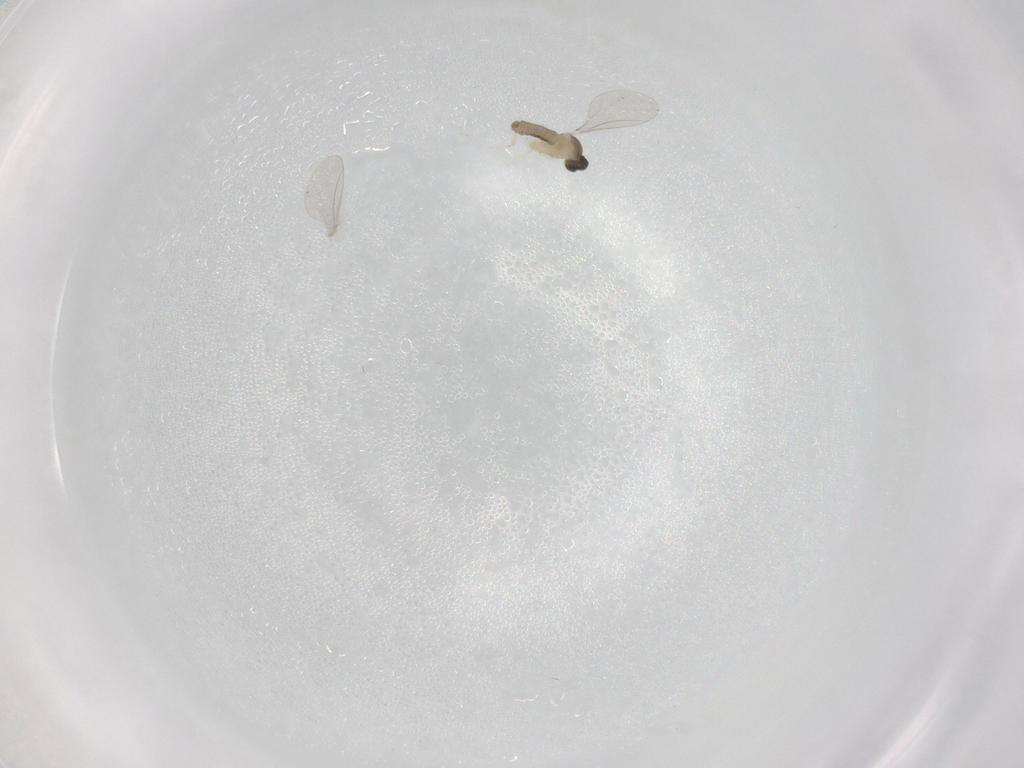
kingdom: Animalia
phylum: Arthropoda
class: Insecta
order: Diptera
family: Cecidomyiidae
